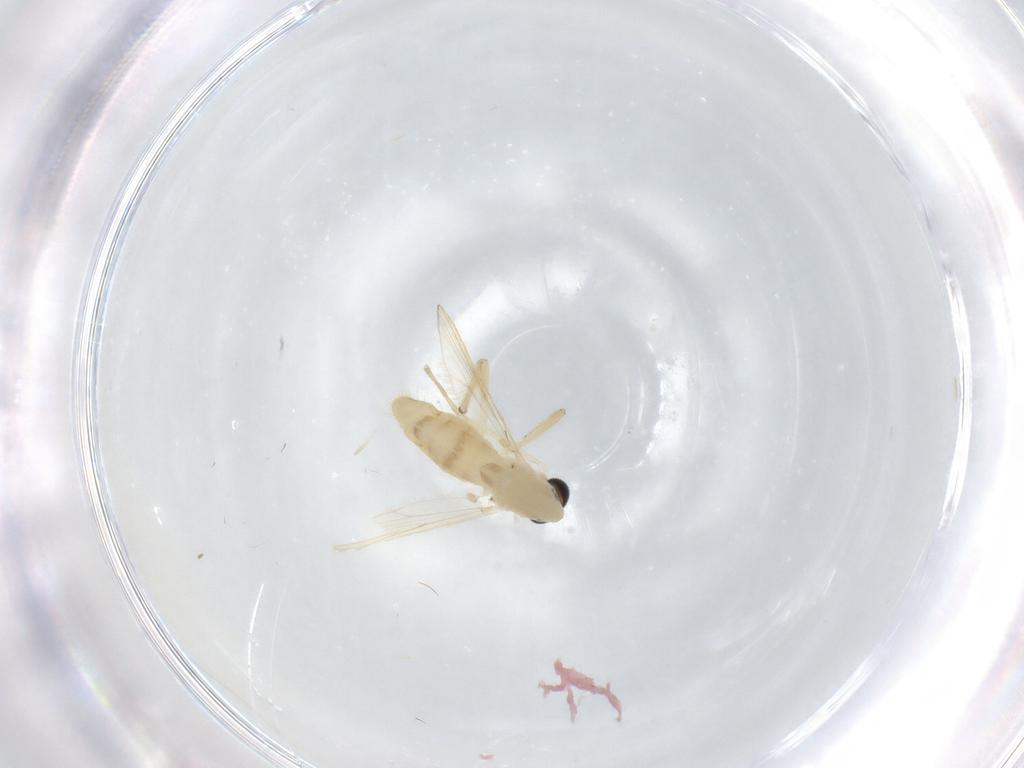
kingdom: Animalia
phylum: Arthropoda
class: Insecta
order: Diptera
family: Chironomidae
